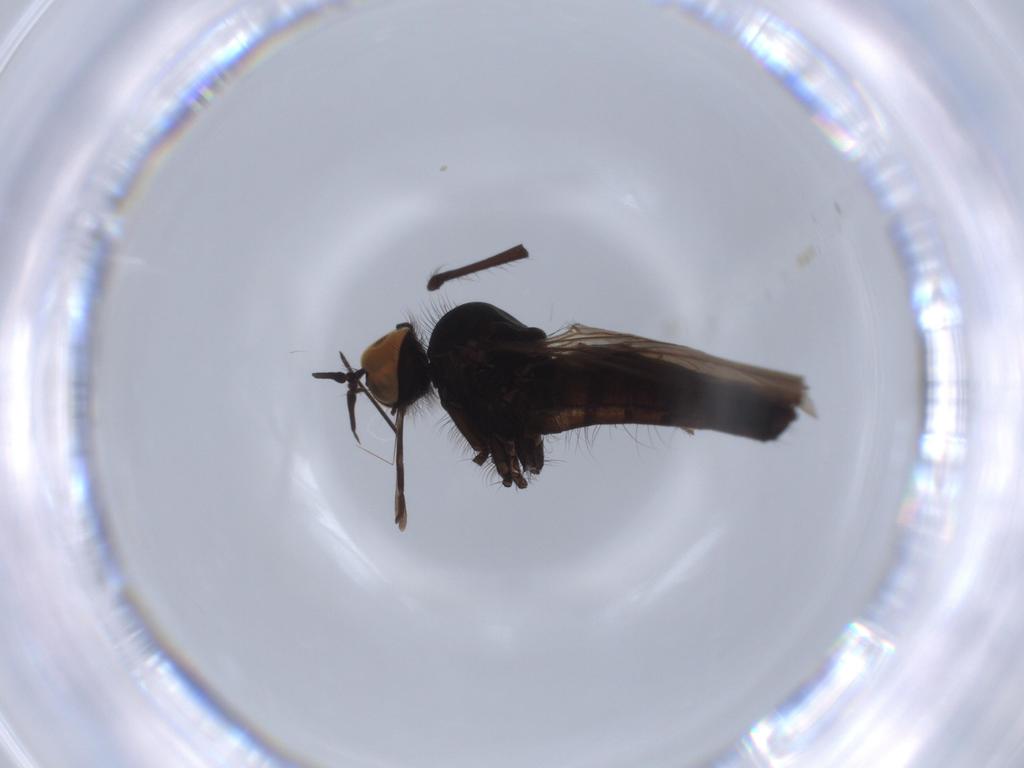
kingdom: Animalia
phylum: Arthropoda
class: Insecta
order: Diptera
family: Empididae
